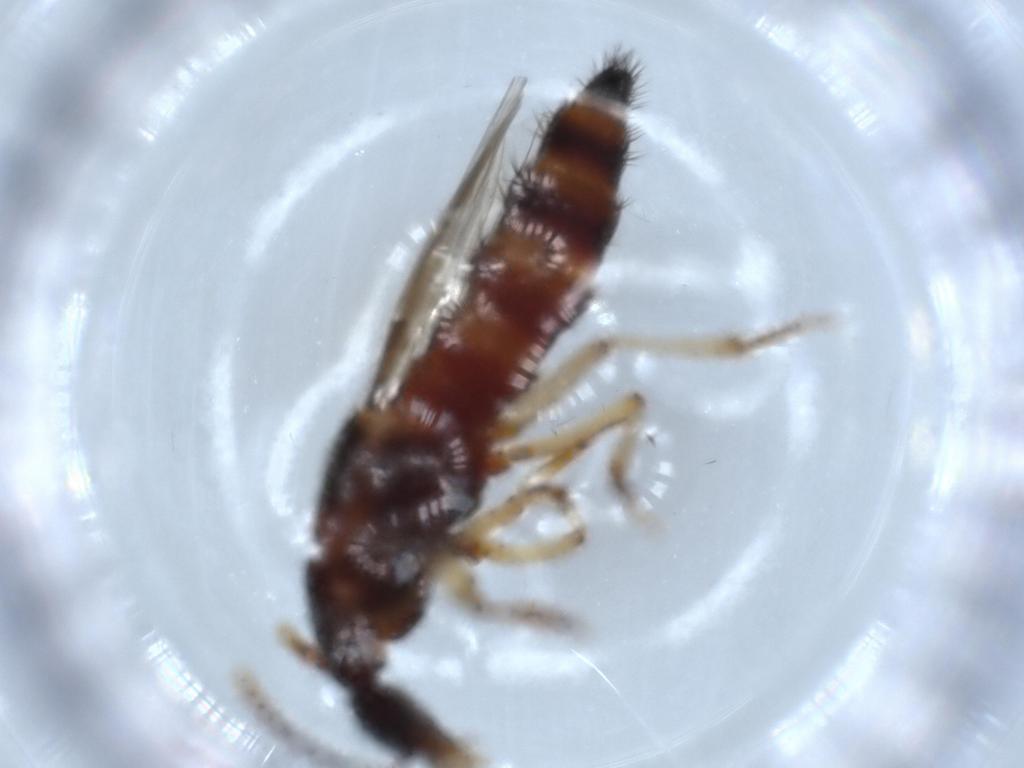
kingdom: Animalia
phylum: Arthropoda
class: Insecta
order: Coleoptera
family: Staphylinidae
